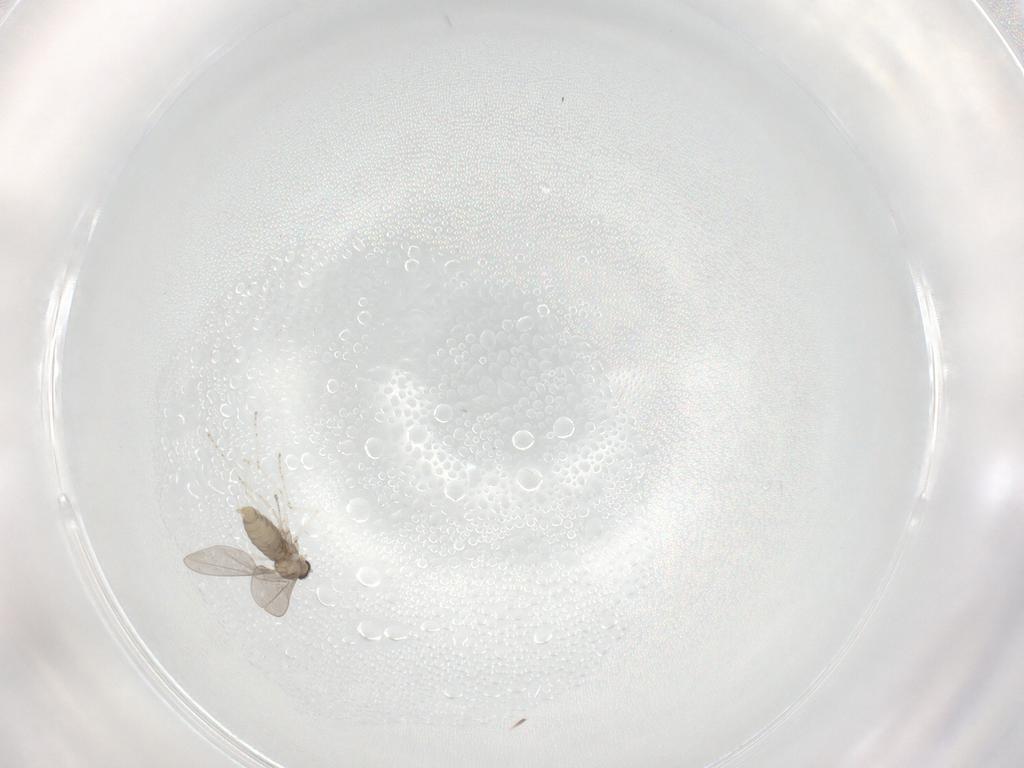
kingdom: Animalia
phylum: Arthropoda
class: Insecta
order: Diptera
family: Cecidomyiidae
